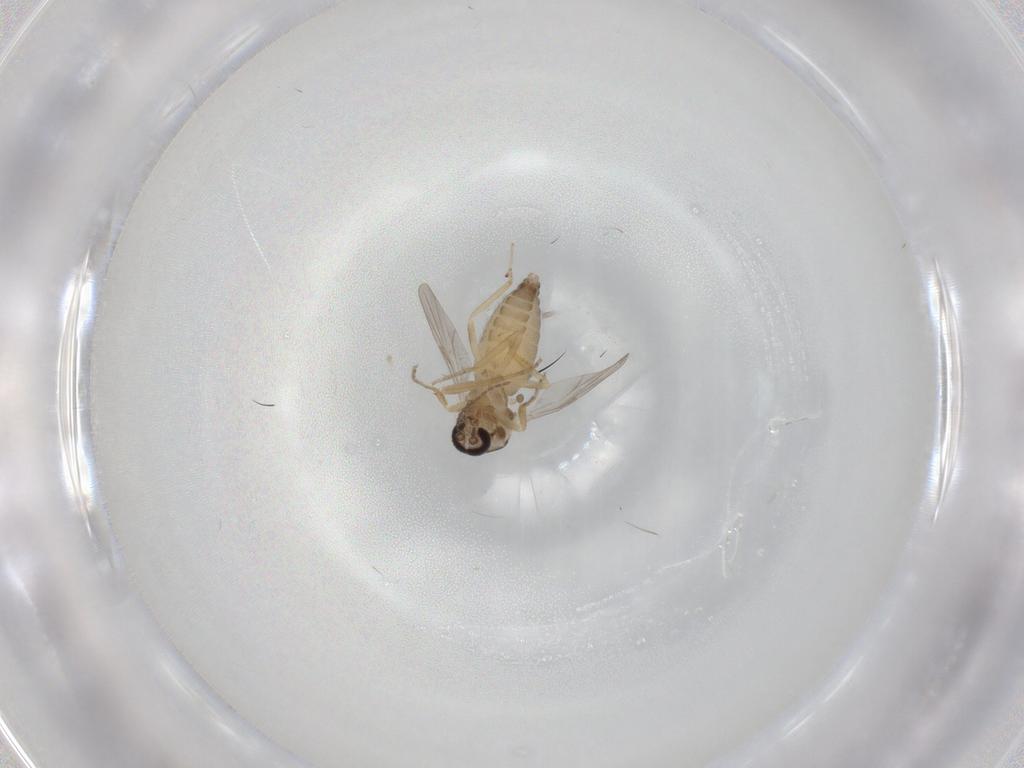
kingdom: Animalia
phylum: Arthropoda
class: Insecta
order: Diptera
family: Ceratopogonidae
